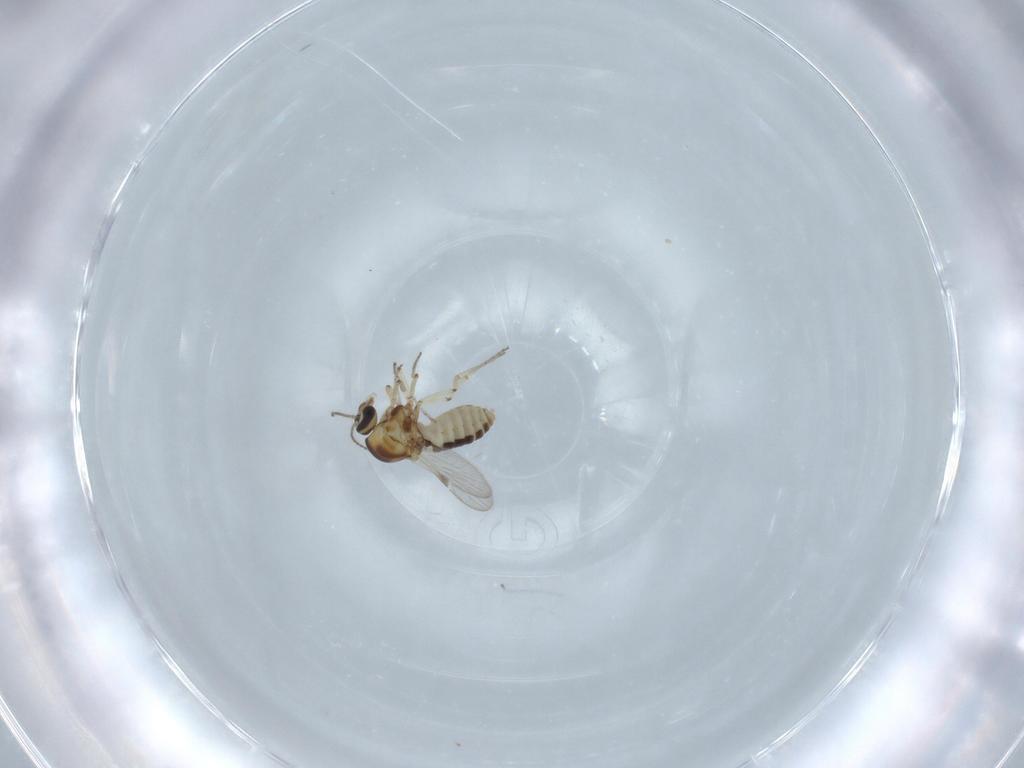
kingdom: Animalia
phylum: Arthropoda
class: Insecta
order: Diptera
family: Ceratopogonidae
